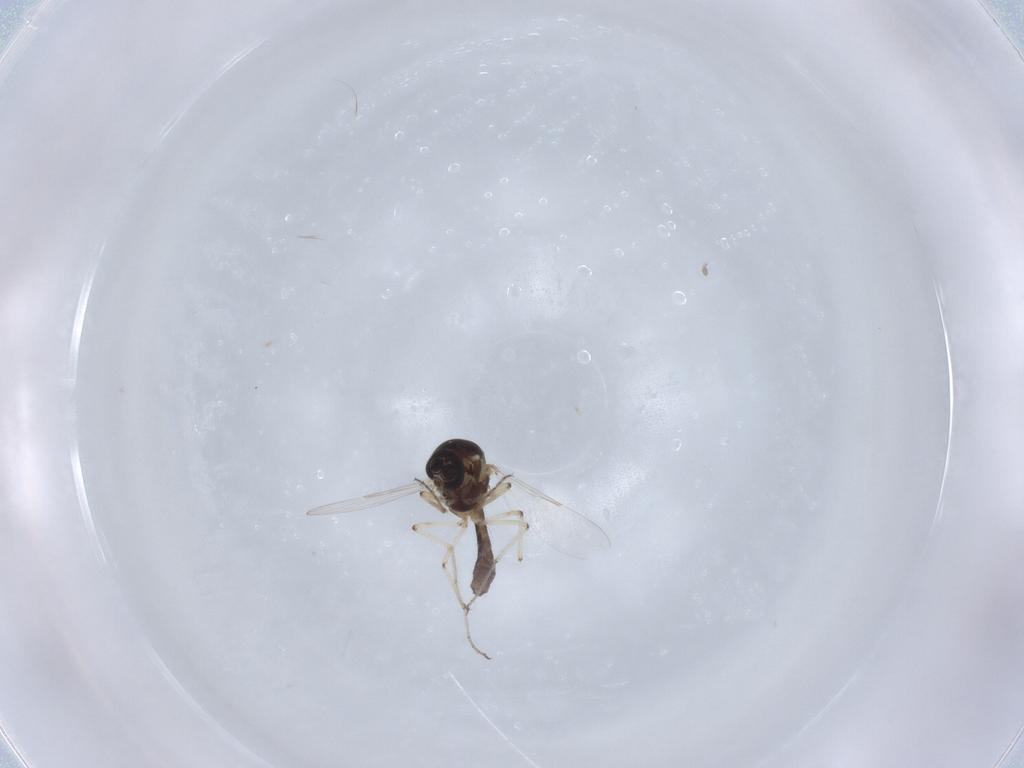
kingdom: Animalia
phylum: Arthropoda
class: Insecta
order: Diptera
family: Ceratopogonidae
